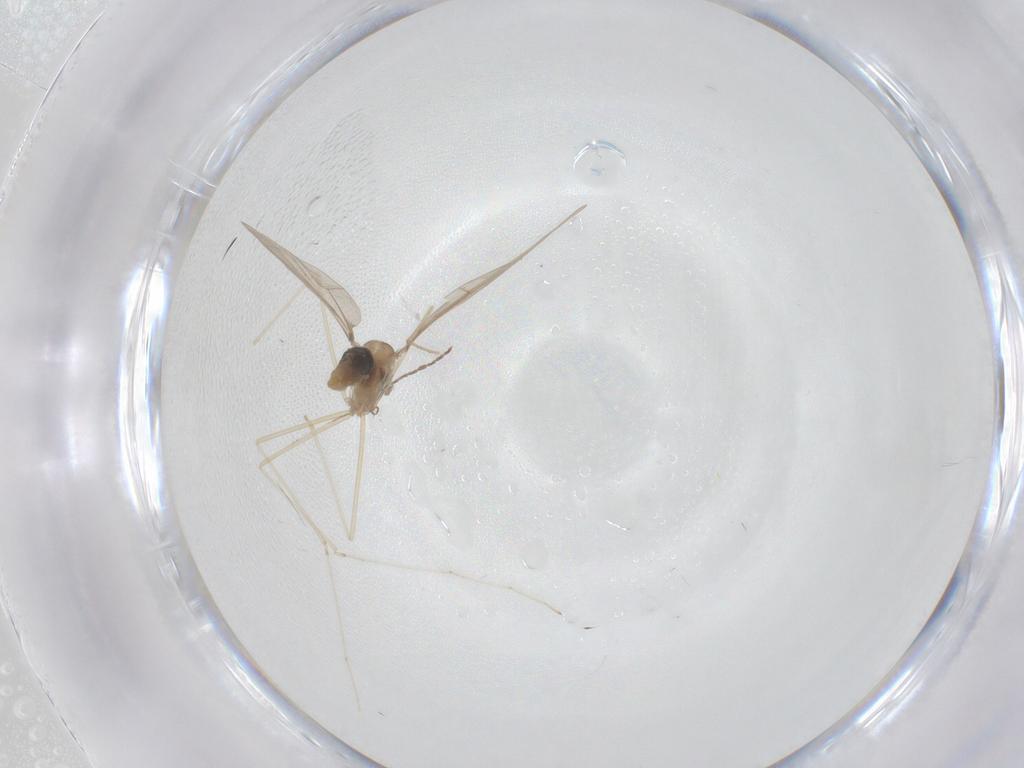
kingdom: Animalia
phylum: Arthropoda
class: Insecta
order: Diptera
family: Cecidomyiidae
